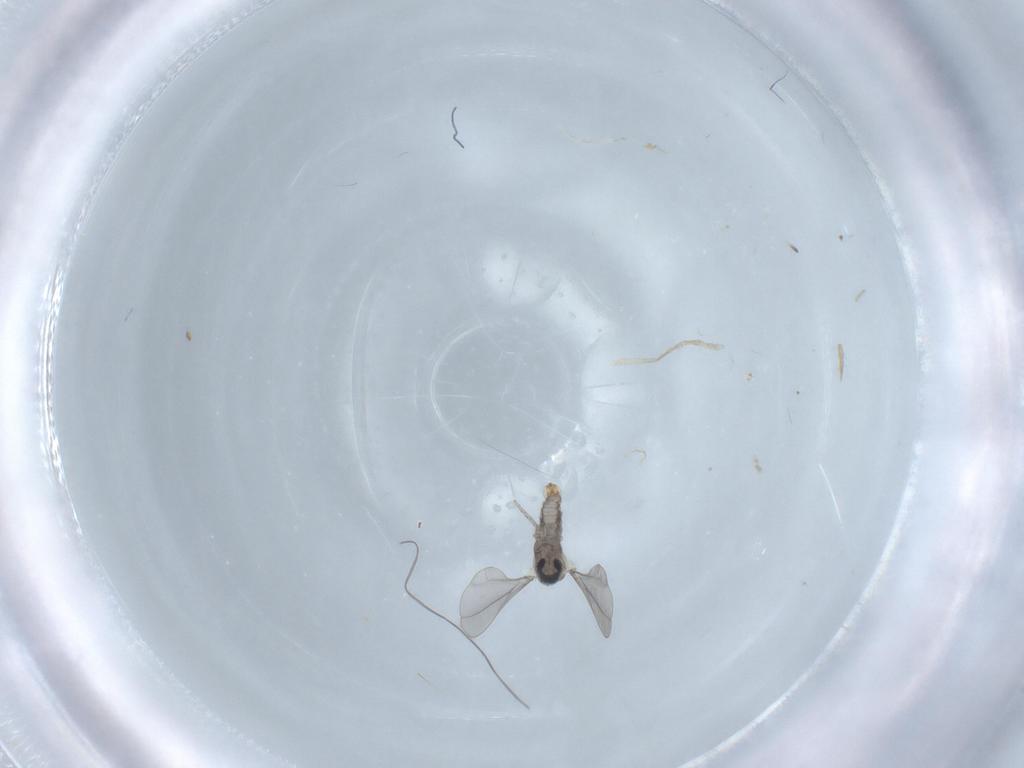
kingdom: Animalia
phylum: Arthropoda
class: Insecta
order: Diptera
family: Cecidomyiidae
